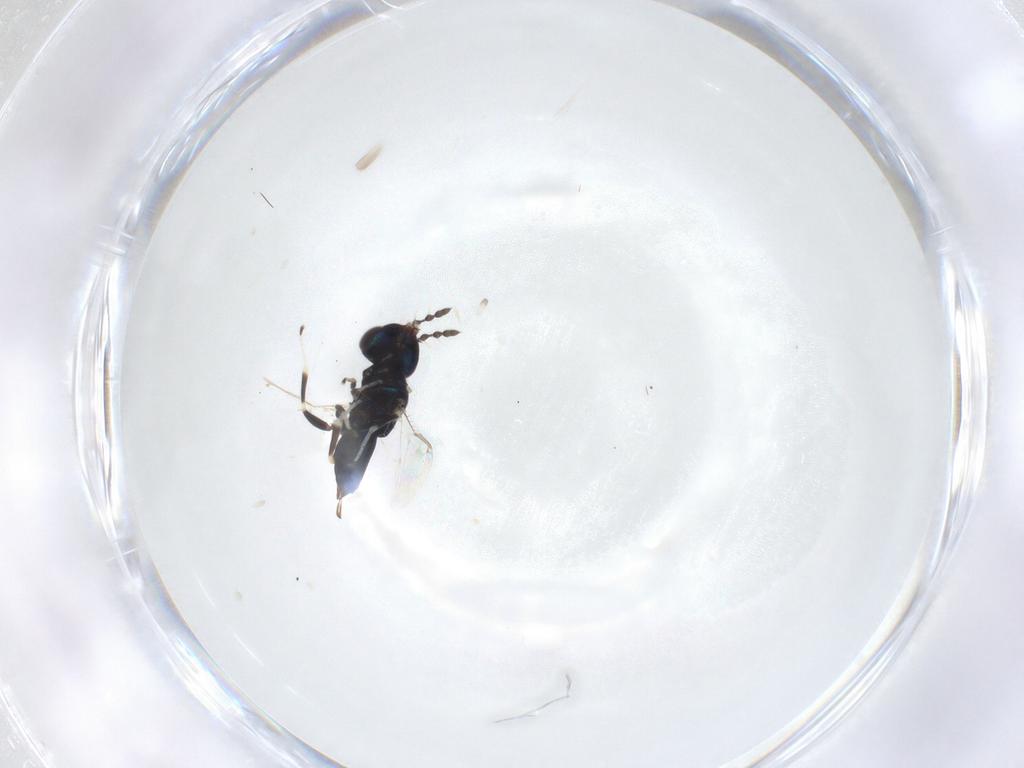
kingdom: Animalia
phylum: Arthropoda
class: Insecta
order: Hymenoptera
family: Eulophidae
